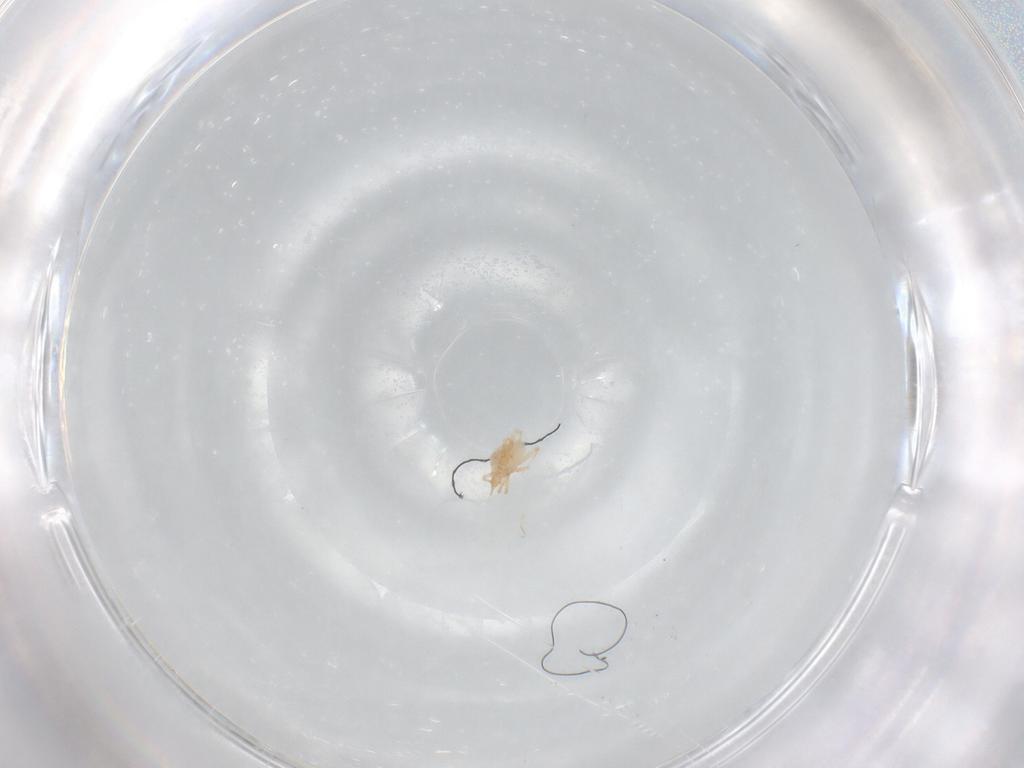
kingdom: Animalia
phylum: Arthropoda
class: Arachnida
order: Trombidiformes
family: Cunaxidae
